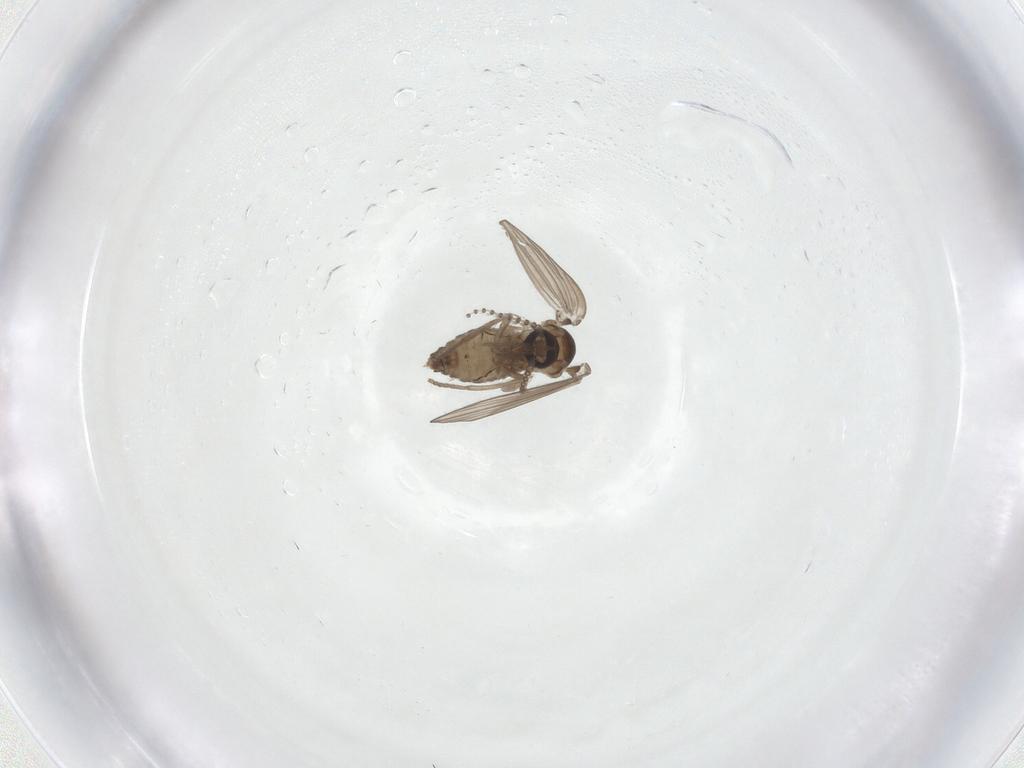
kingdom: Animalia
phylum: Arthropoda
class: Insecta
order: Diptera
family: Psychodidae
